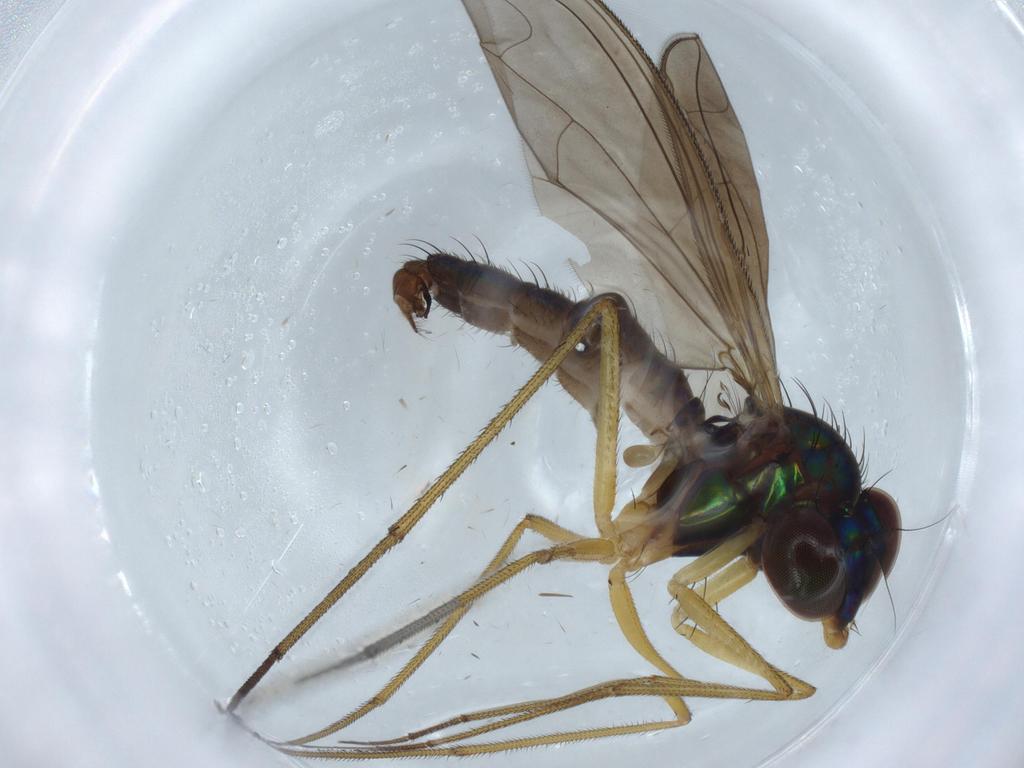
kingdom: Animalia
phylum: Arthropoda
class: Insecta
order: Diptera
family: Dolichopodidae
